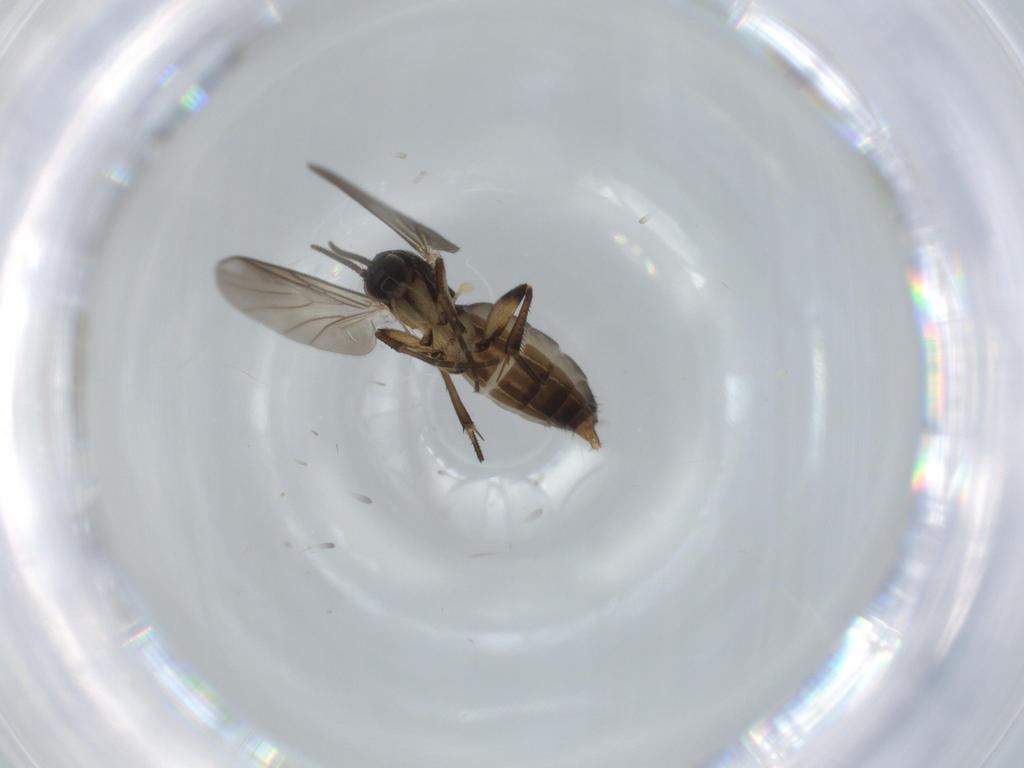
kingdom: Animalia
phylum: Arthropoda
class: Insecta
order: Diptera
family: Mycetophilidae
